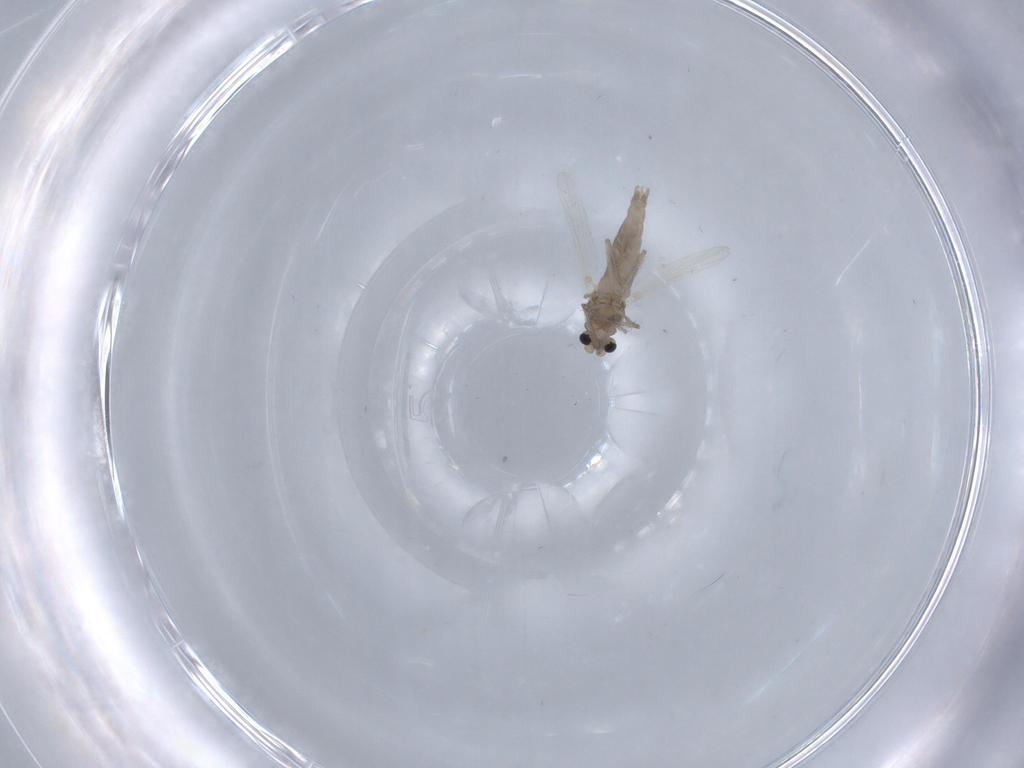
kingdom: Animalia
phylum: Arthropoda
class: Insecta
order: Diptera
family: Chironomidae
